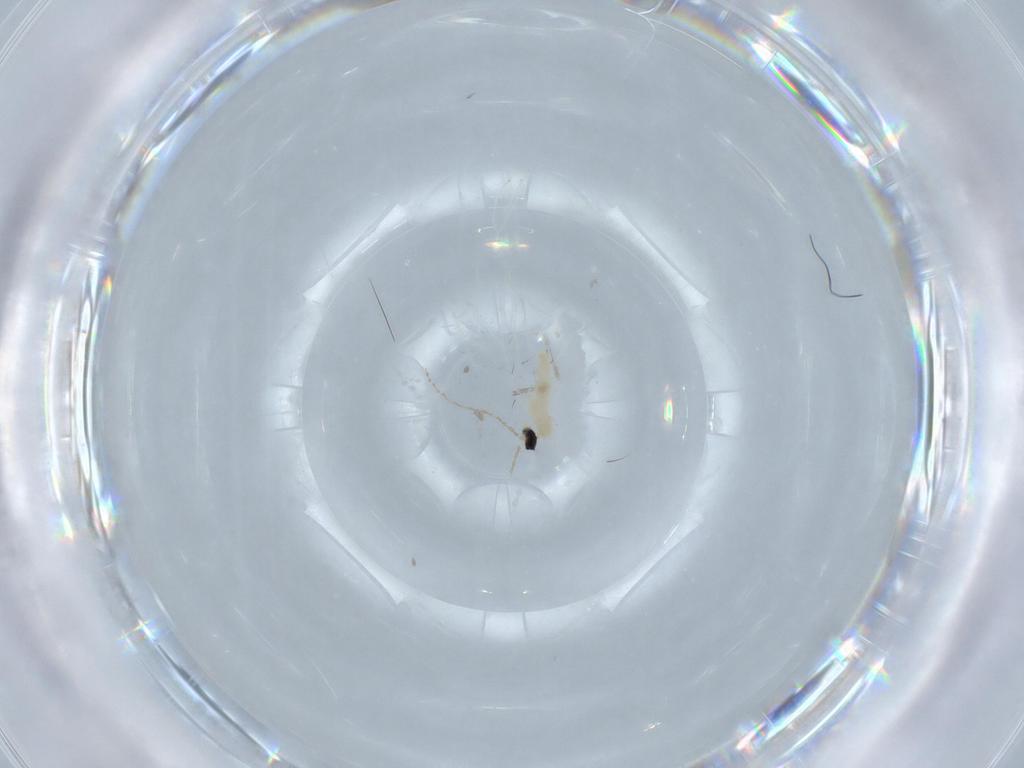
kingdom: Animalia
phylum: Arthropoda
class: Insecta
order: Diptera
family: Cecidomyiidae
